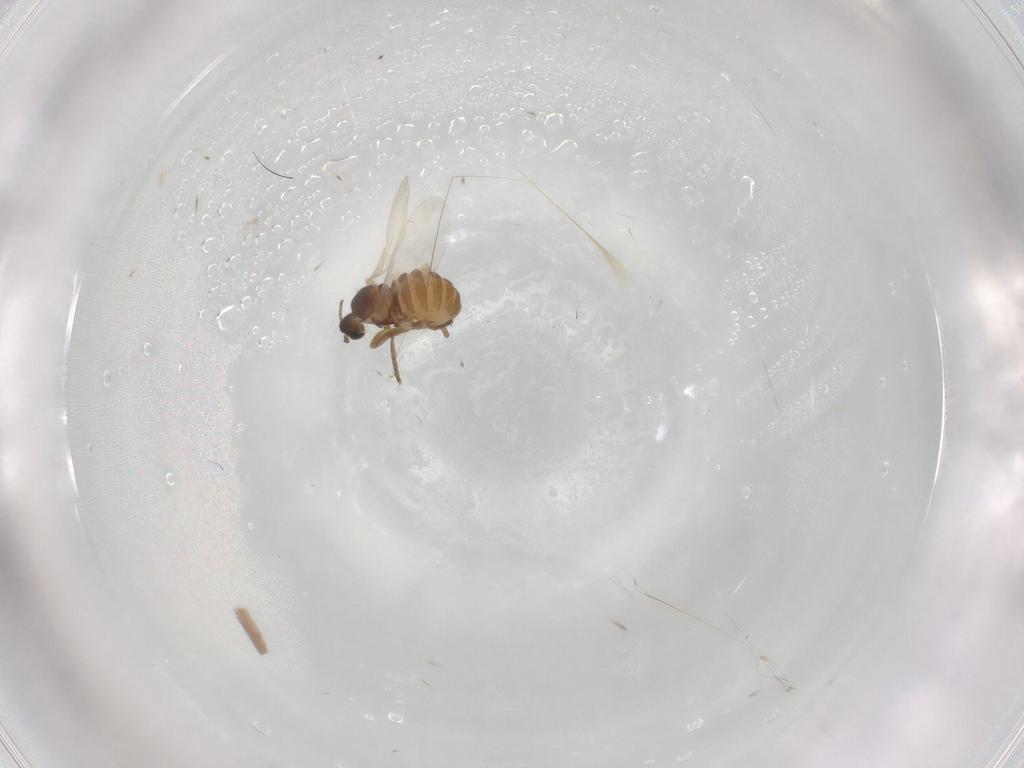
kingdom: Animalia
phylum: Arthropoda
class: Insecta
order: Diptera
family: Cecidomyiidae
